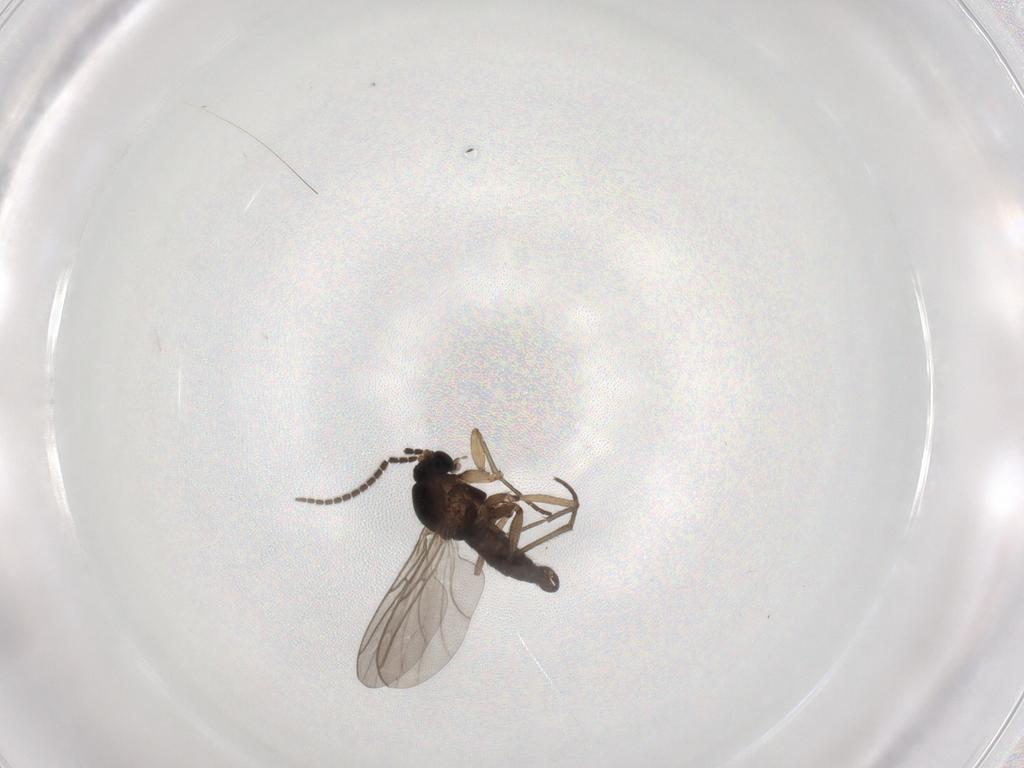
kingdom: Animalia
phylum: Arthropoda
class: Insecta
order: Diptera
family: Sciaridae
